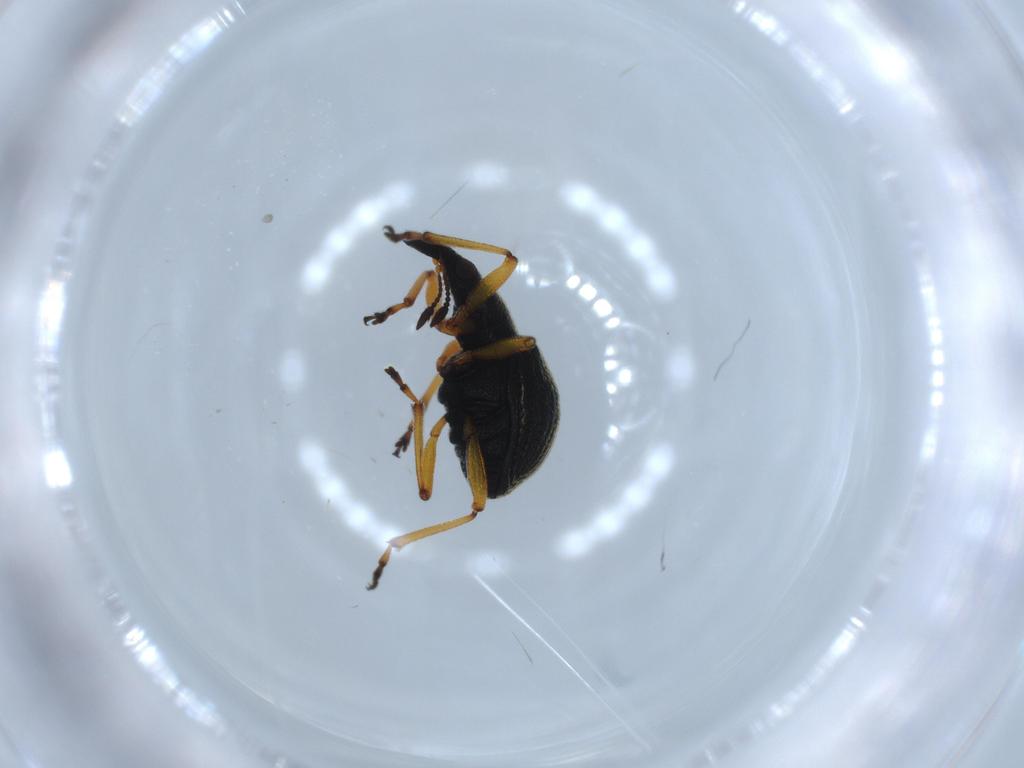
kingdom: Animalia
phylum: Arthropoda
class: Insecta
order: Coleoptera
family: Brentidae
